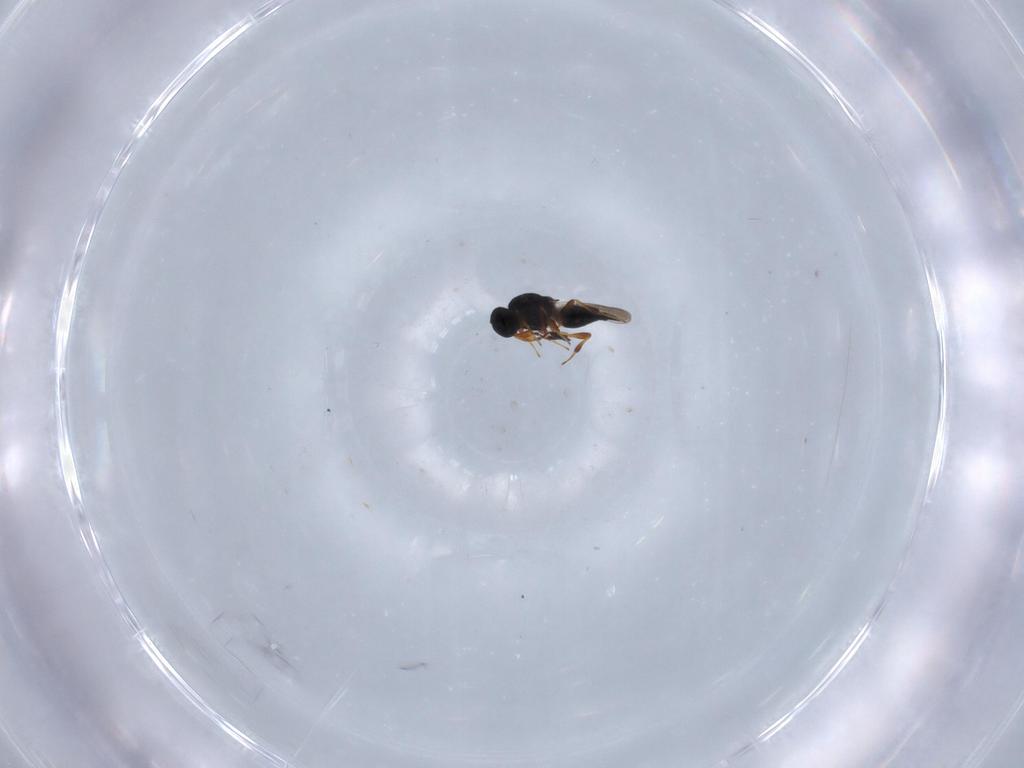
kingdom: Animalia
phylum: Arthropoda
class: Insecta
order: Hymenoptera
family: Platygastridae
